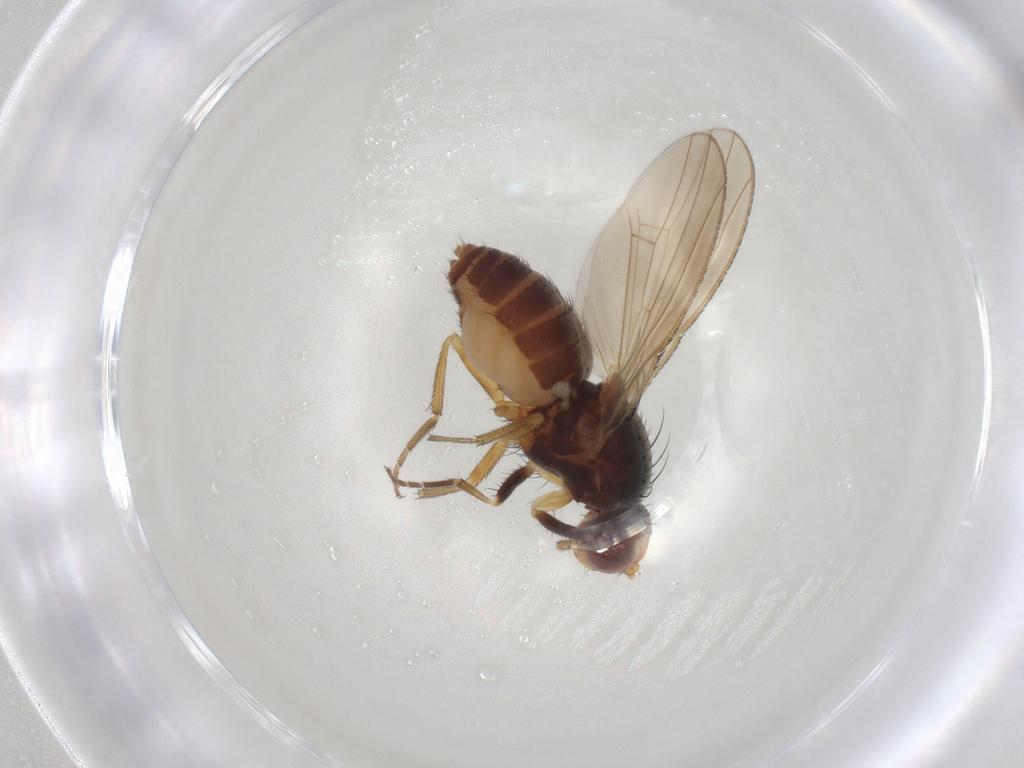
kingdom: Animalia
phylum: Arthropoda
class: Insecta
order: Diptera
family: Heleomyzidae
